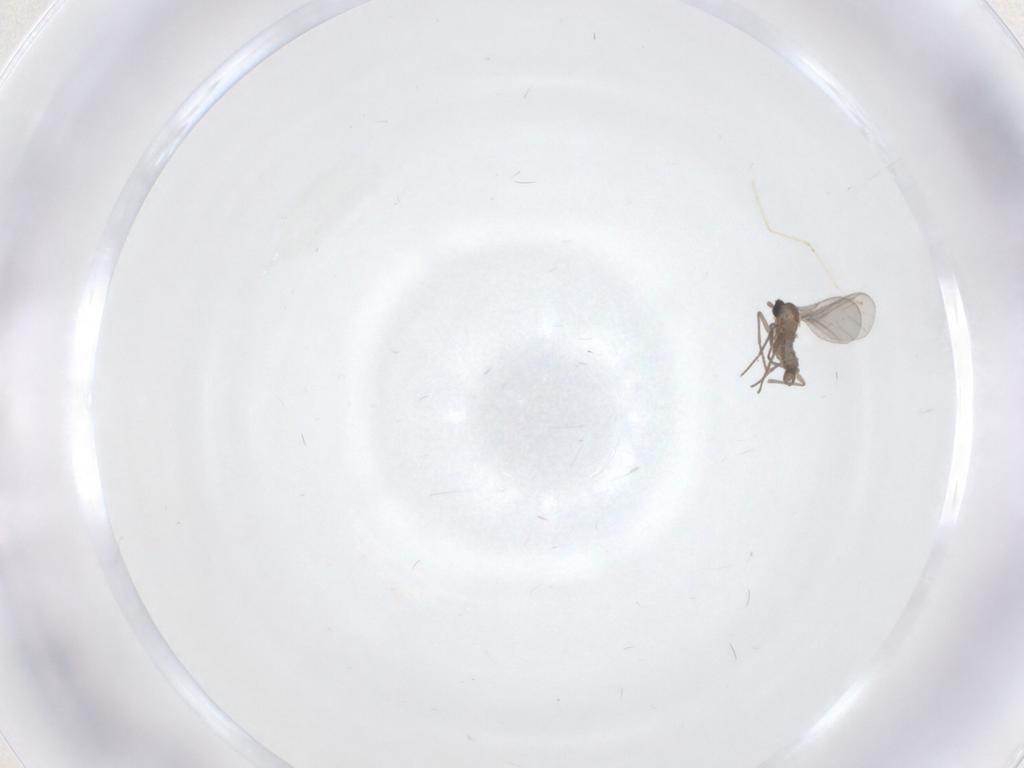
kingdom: Animalia
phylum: Arthropoda
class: Insecta
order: Diptera
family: Sciaridae
